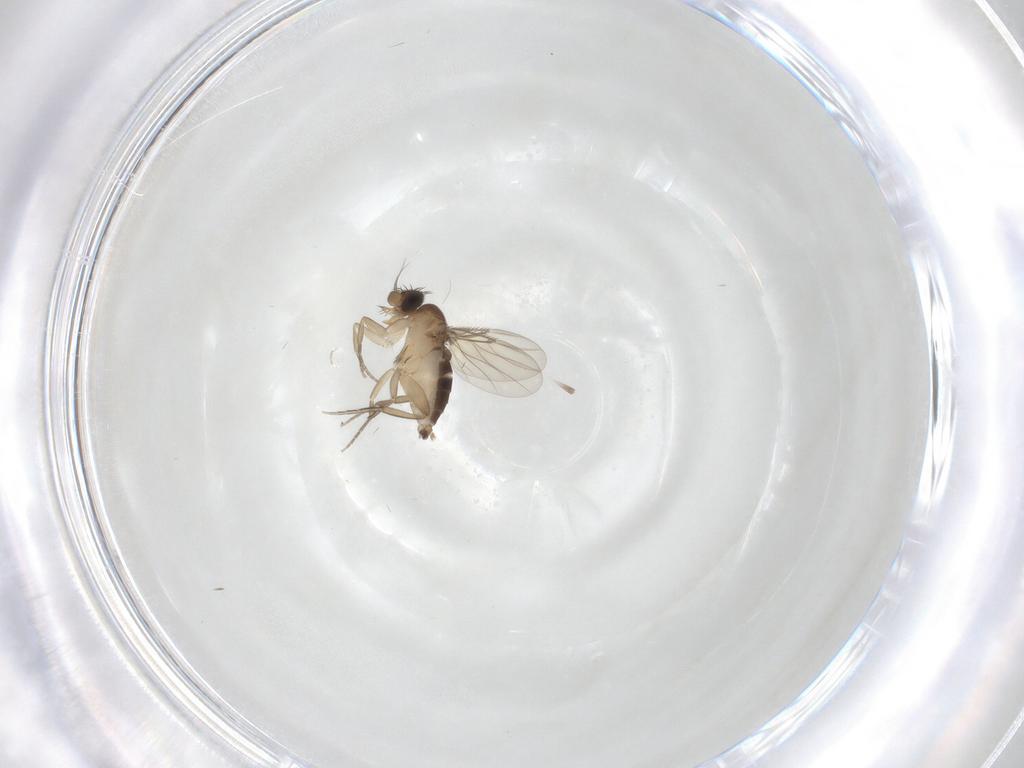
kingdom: Animalia
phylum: Arthropoda
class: Insecta
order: Diptera
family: Phoridae
